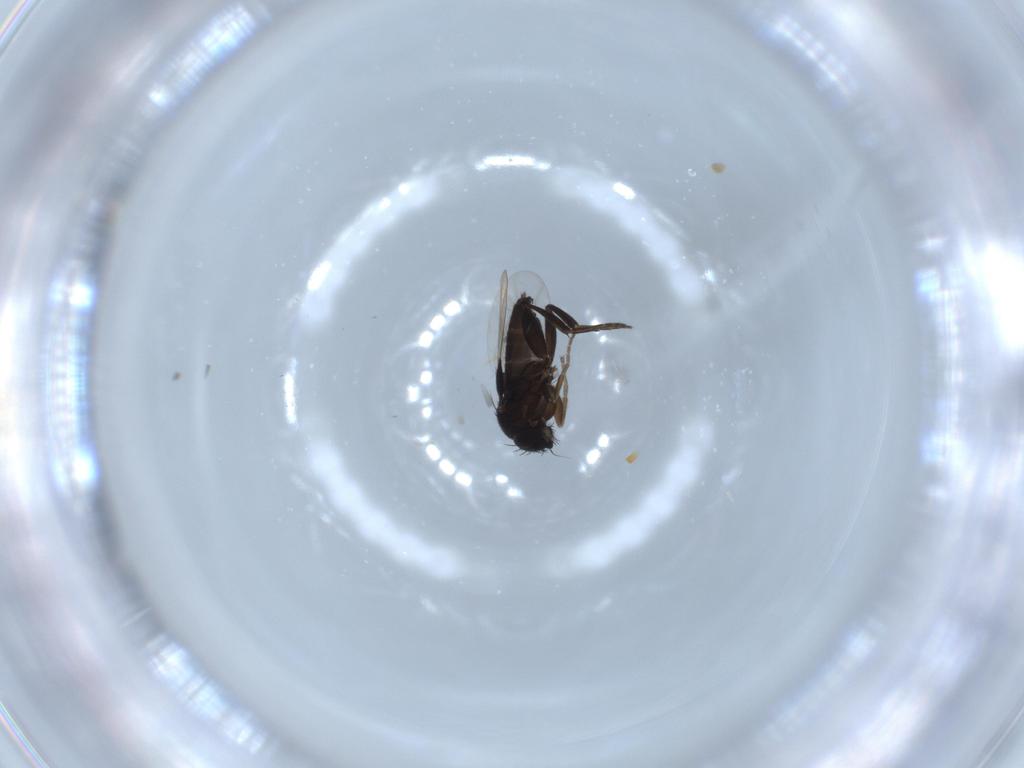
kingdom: Animalia
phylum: Arthropoda
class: Insecta
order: Diptera
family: Phoridae
